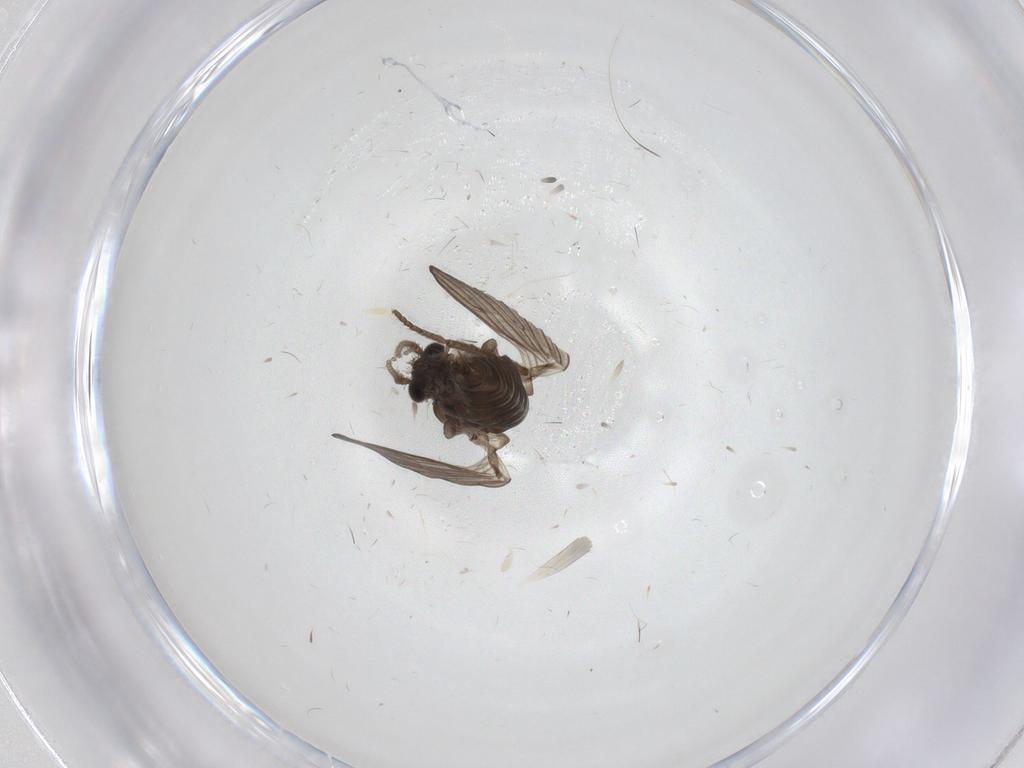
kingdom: Animalia
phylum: Arthropoda
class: Insecta
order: Diptera
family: Psychodidae
